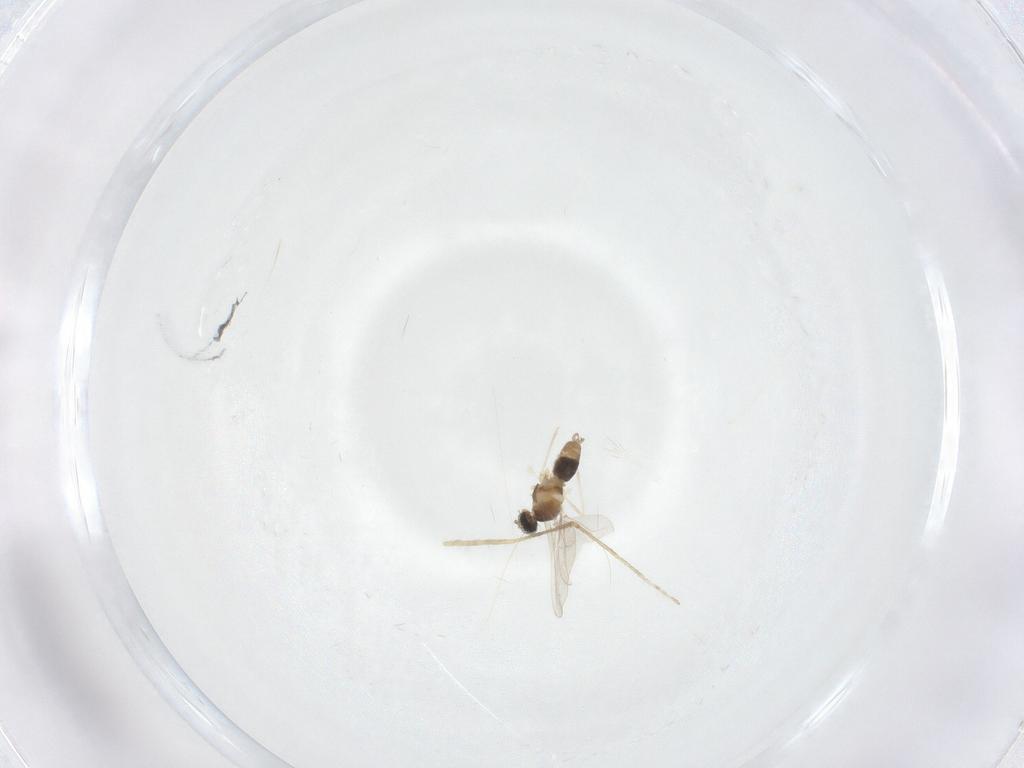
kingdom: Animalia
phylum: Arthropoda
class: Insecta
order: Diptera
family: Cecidomyiidae
